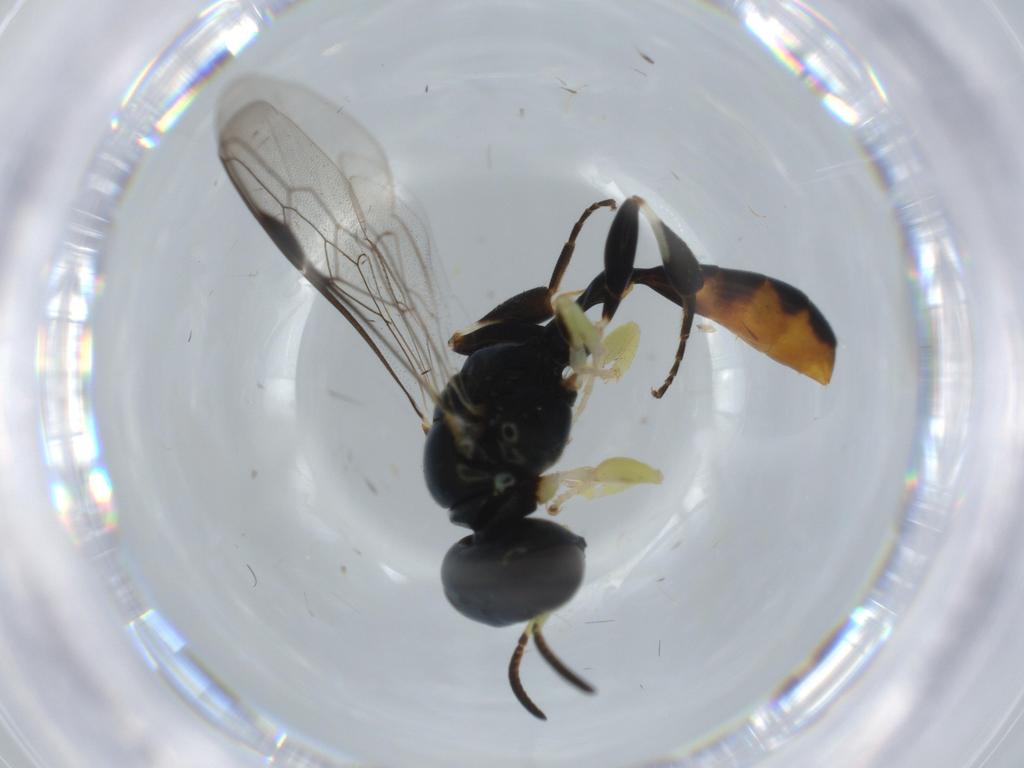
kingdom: Animalia
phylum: Arthropoda
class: Insecta
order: Hymenoptera
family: Crabronidae
